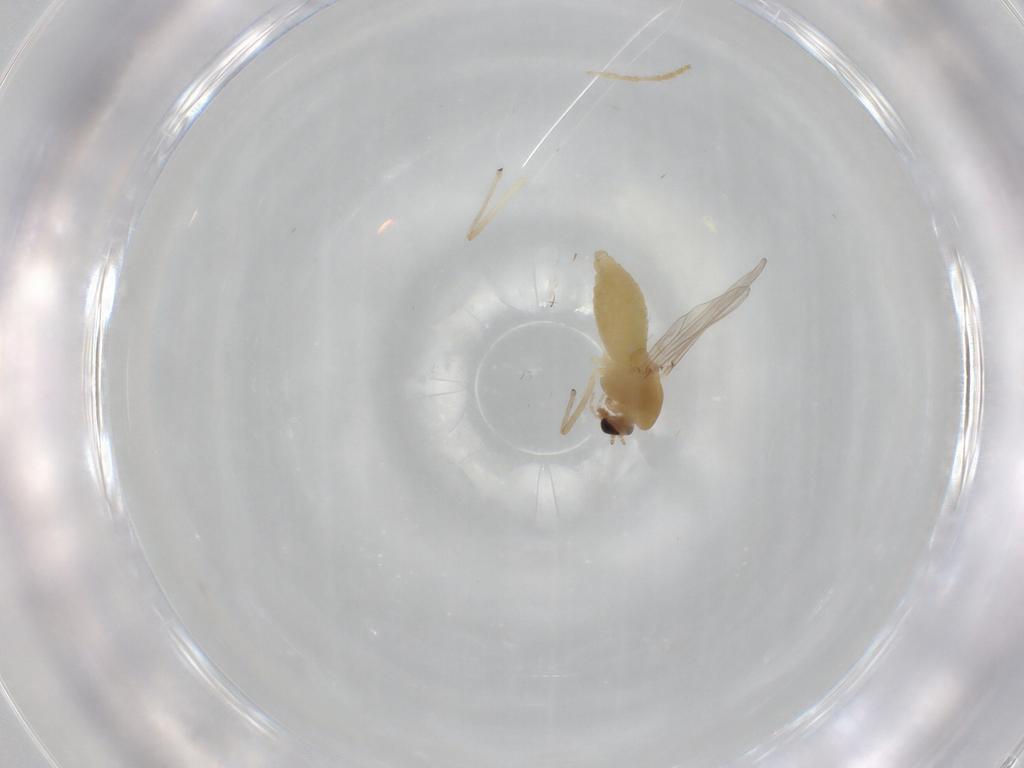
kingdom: Animalia
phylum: Arthropoda
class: Insecta
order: Diptera
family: Chironomidae
